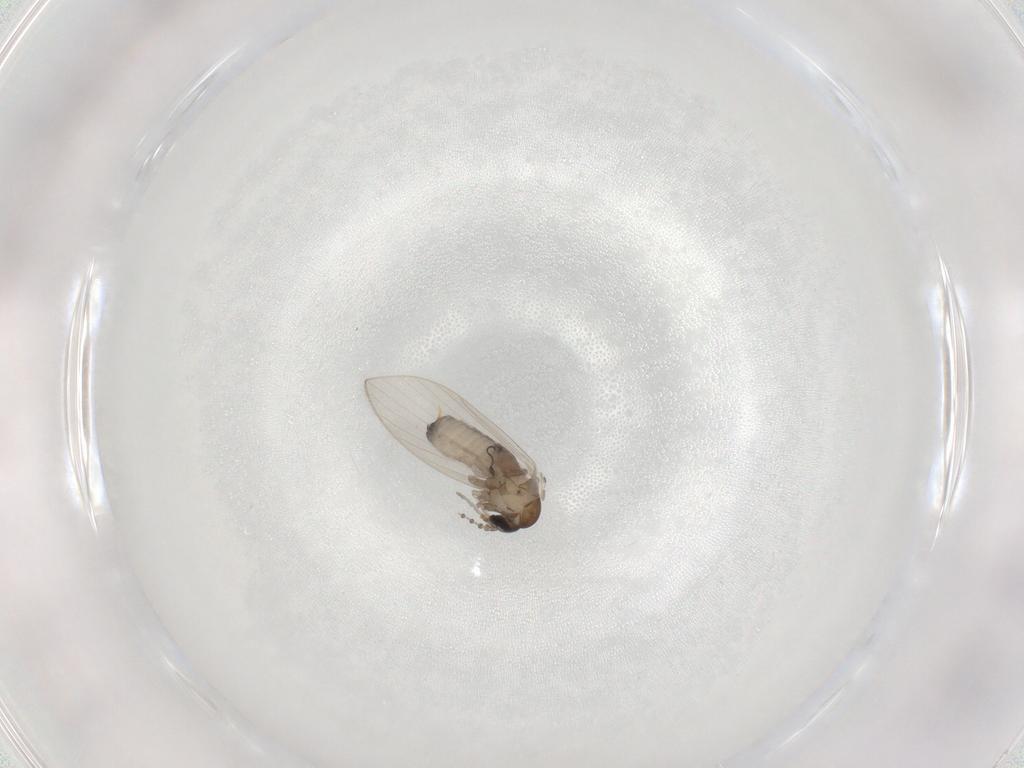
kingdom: Animalia
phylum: Arthropoda
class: Insecta
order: Diptera
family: Psychodidae
